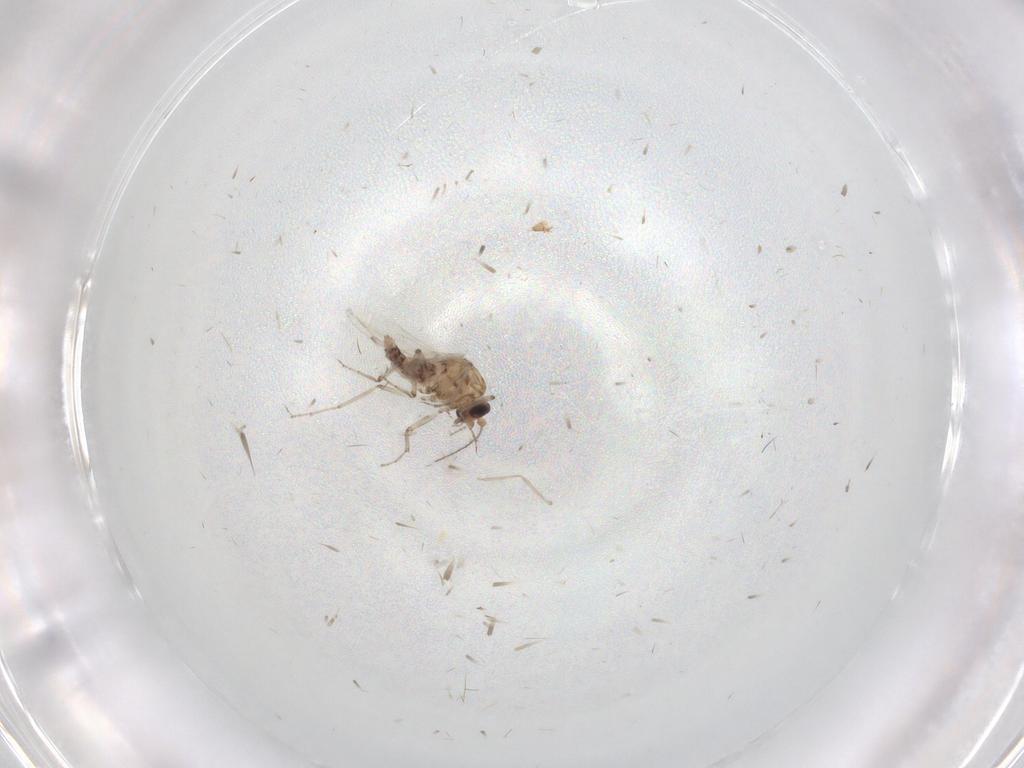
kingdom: Animalia
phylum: Arthropoda
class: Insecta
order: Diptera
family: Ceratopogonidae
